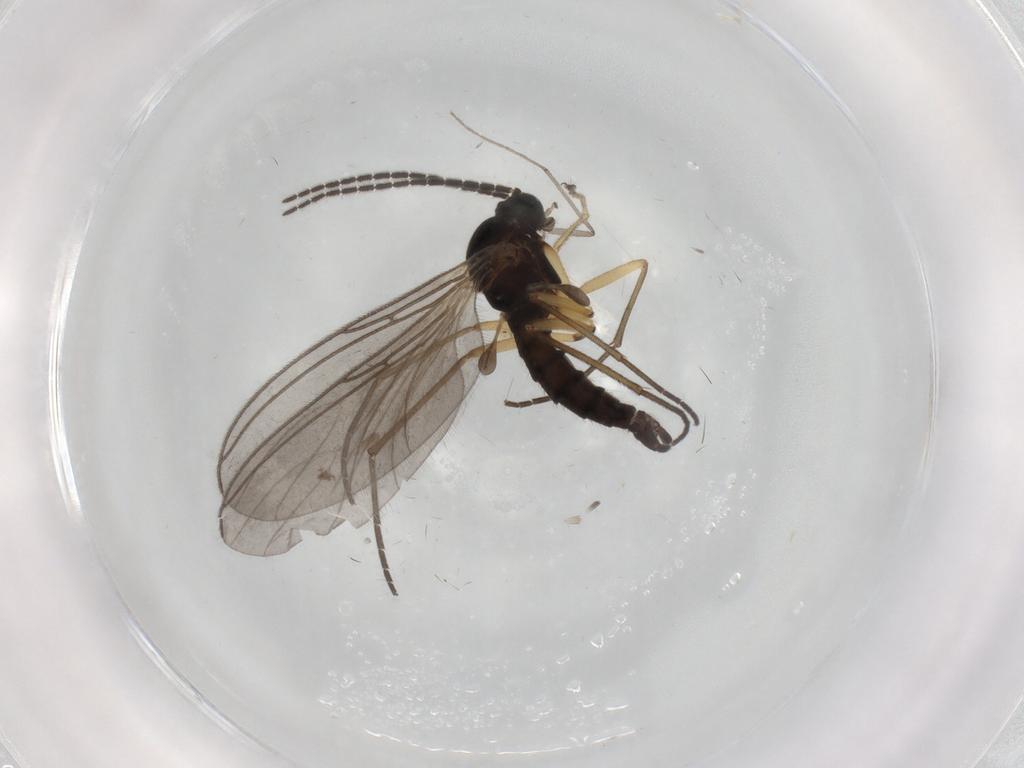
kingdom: Animalia
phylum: Arthropoda
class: Insecta
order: Diptera
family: Sciaridae
